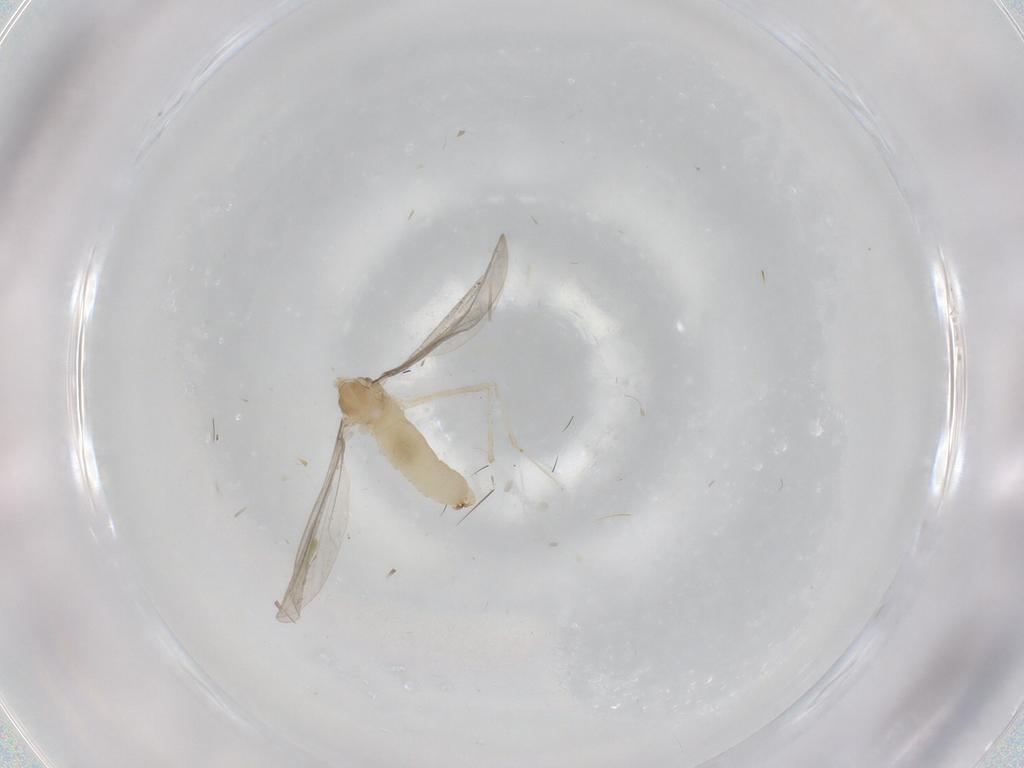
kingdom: Animalia
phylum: Arthropoda
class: Insecta
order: Diptera
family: Cecidomyiidae
